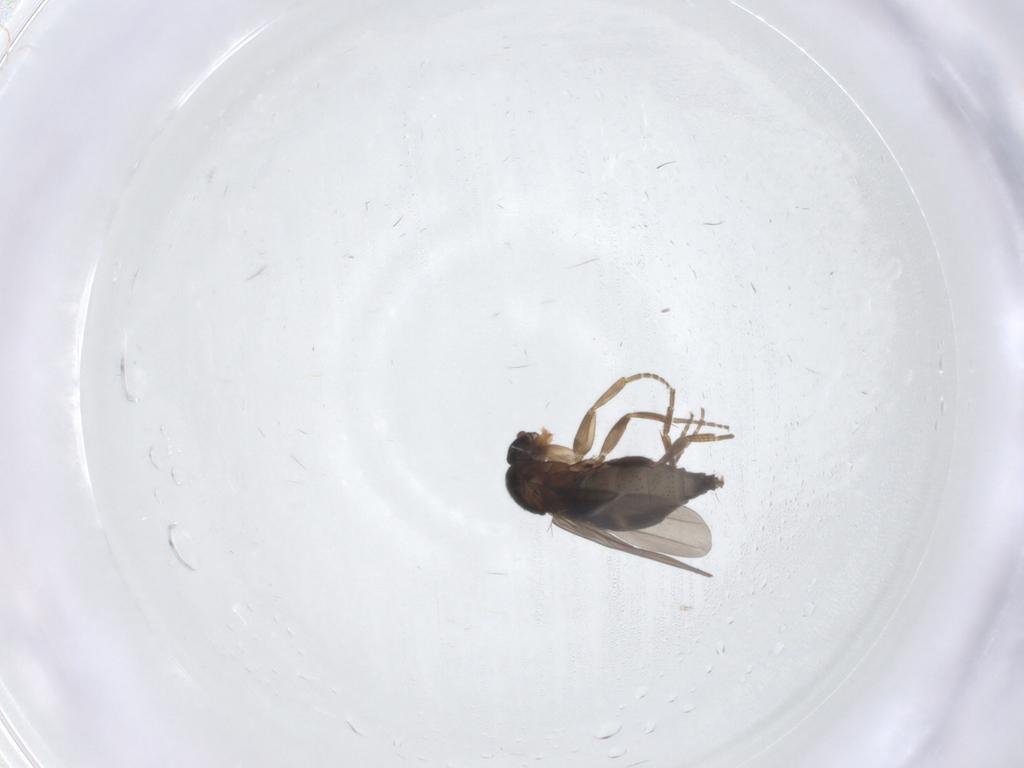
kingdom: Animalia
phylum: Arthropoda
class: Insecta
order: Diptera
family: Phoridae
